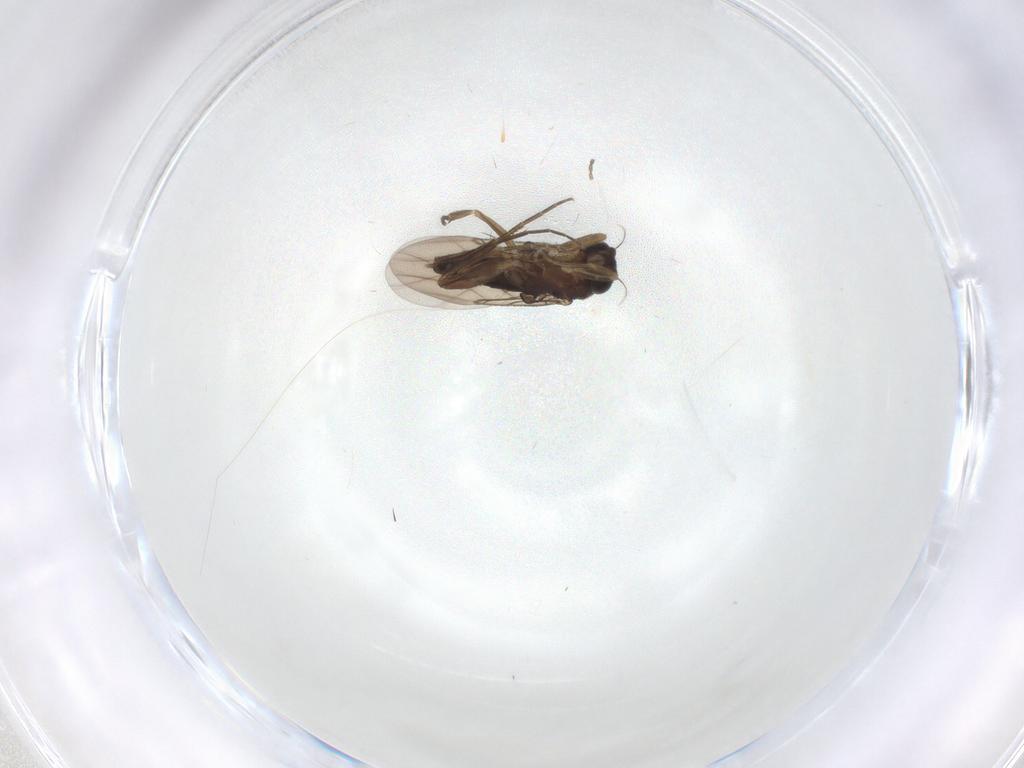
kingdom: Animalia
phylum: Arthropoda
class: Insecta
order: Diptera
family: Phoridae
